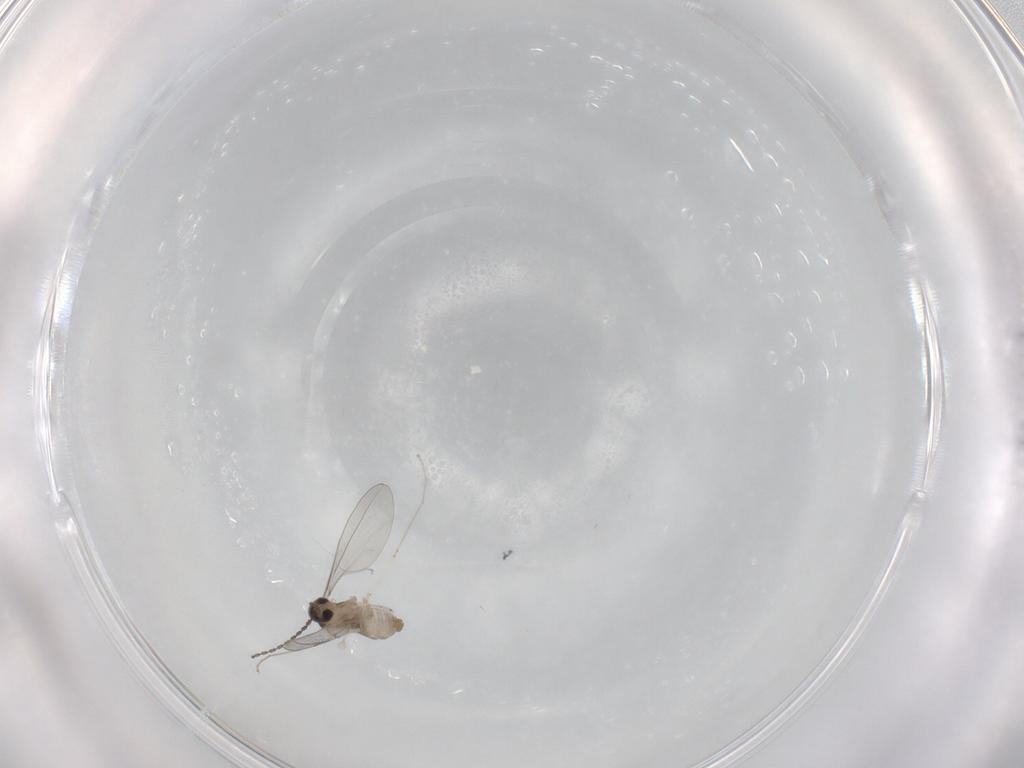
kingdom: Animalia
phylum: Arthropoda
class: Insecta
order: Diptera
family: Cecidomyiidae
